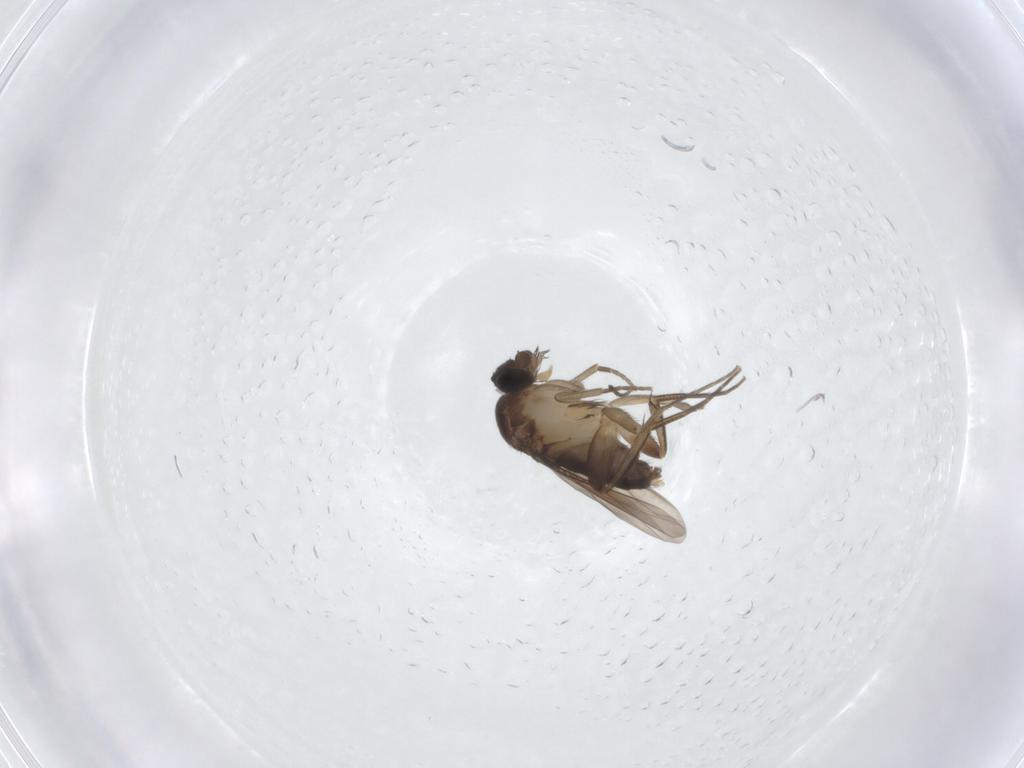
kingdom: Animalia
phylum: Arthropoda
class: Insecta
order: Diptera
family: Phoridae
